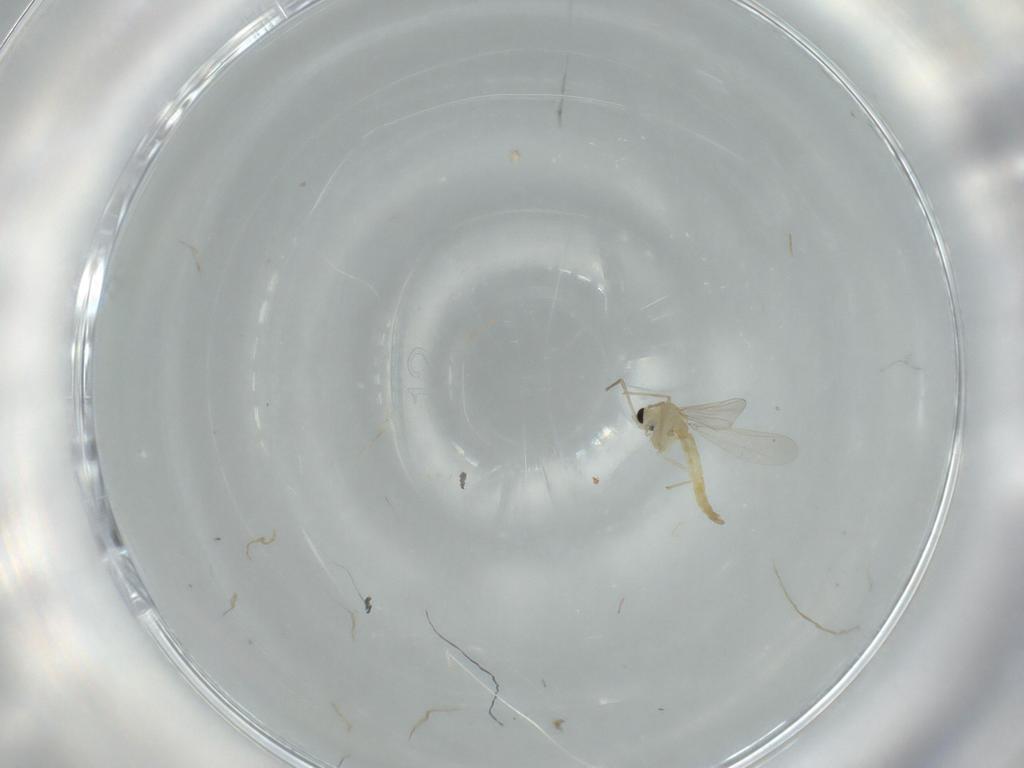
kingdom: Animalia
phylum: Arthropoda
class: Insecta
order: Diptera
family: Chironomidae
